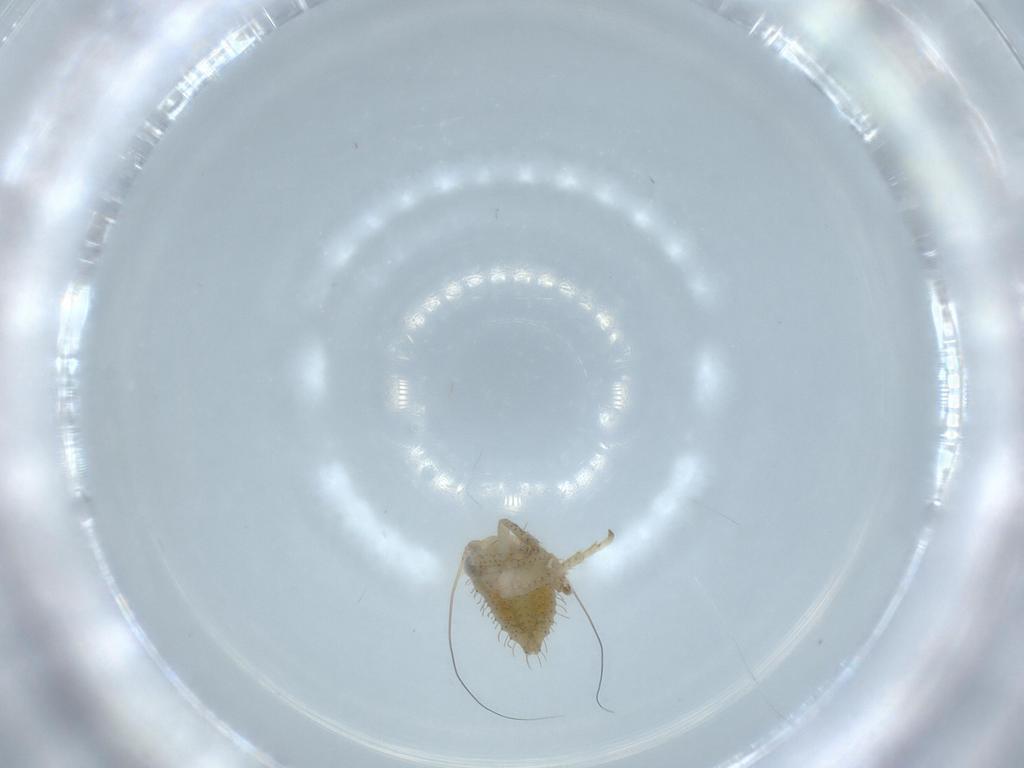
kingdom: Animalia
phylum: Arthropoda
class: Insecta
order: Hemiptera
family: Cicadellidae
